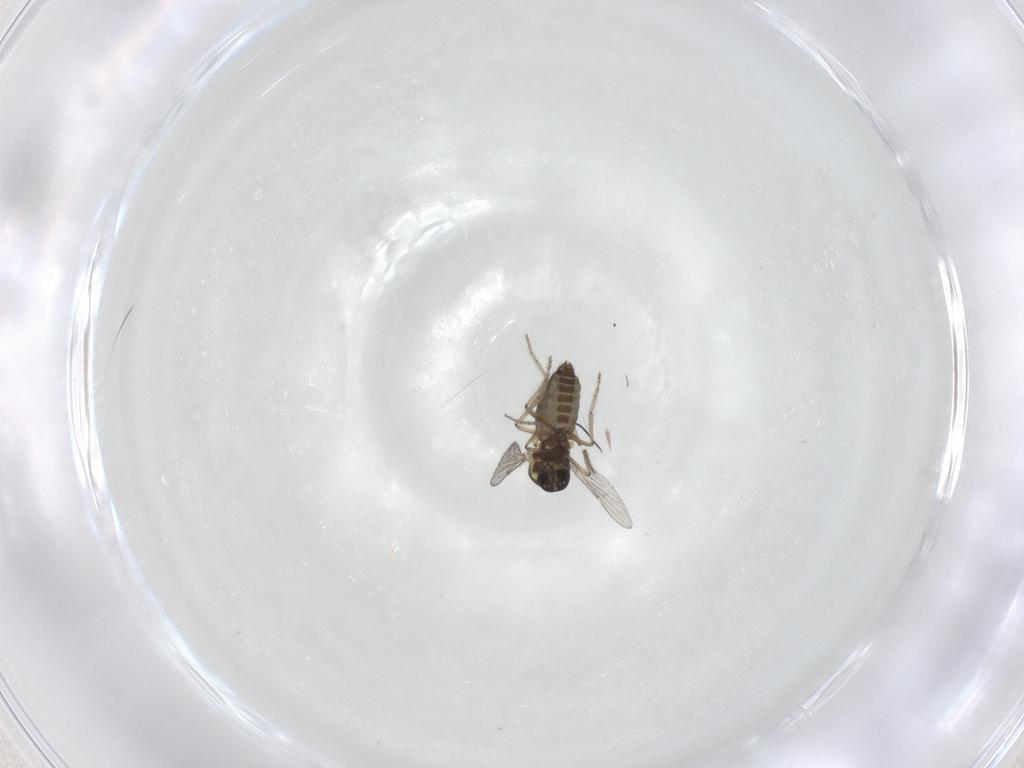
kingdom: Animalia
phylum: Arthropoda
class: Insecta
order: Diptera
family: Ceratopogonidae
